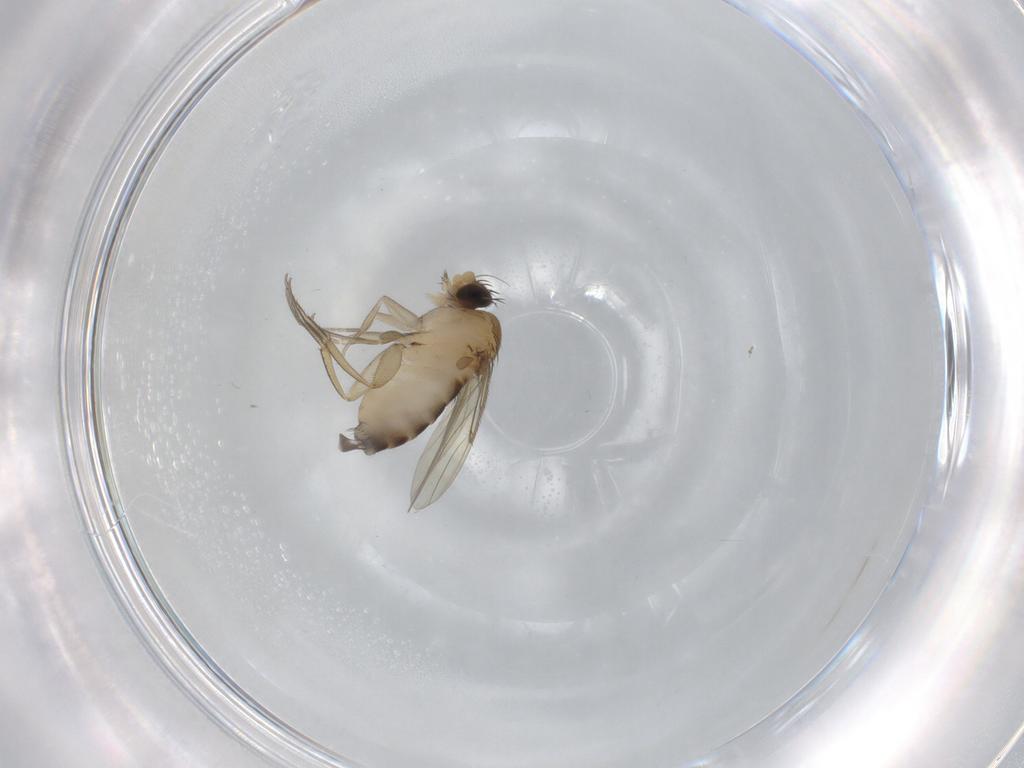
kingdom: Animalia
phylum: Arthropoda
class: Insecta
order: Diptera
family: Phoridae
